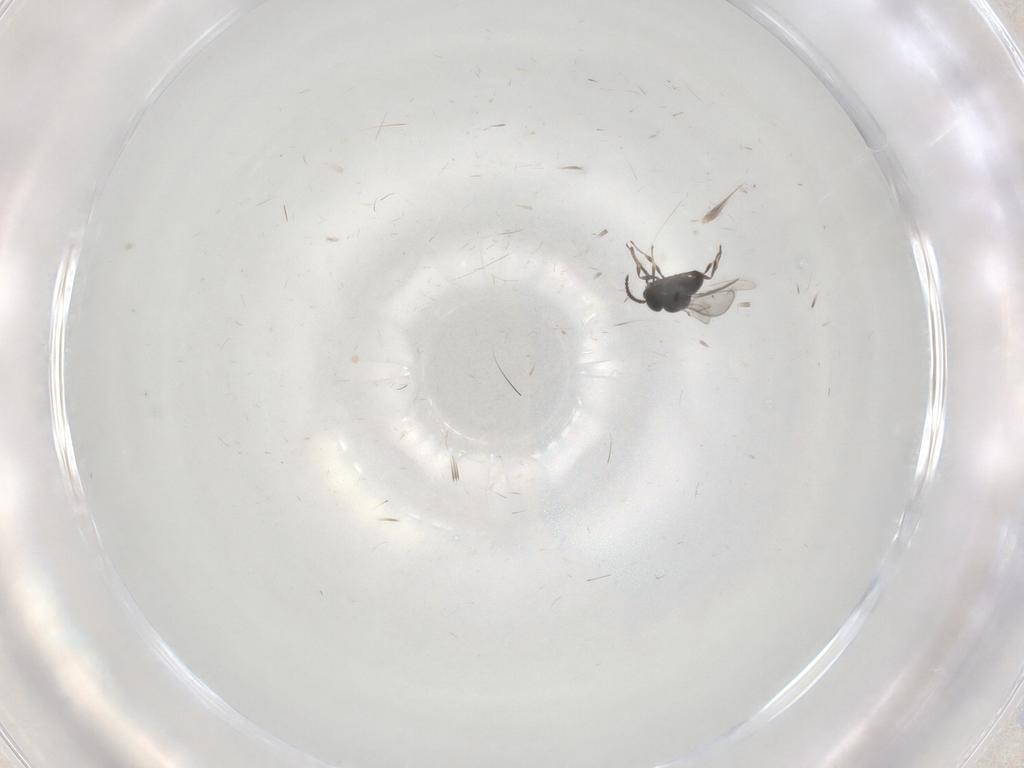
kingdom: Animalia
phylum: Arthropoda
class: Insecta
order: Hymenoptera
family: Scelionidae
